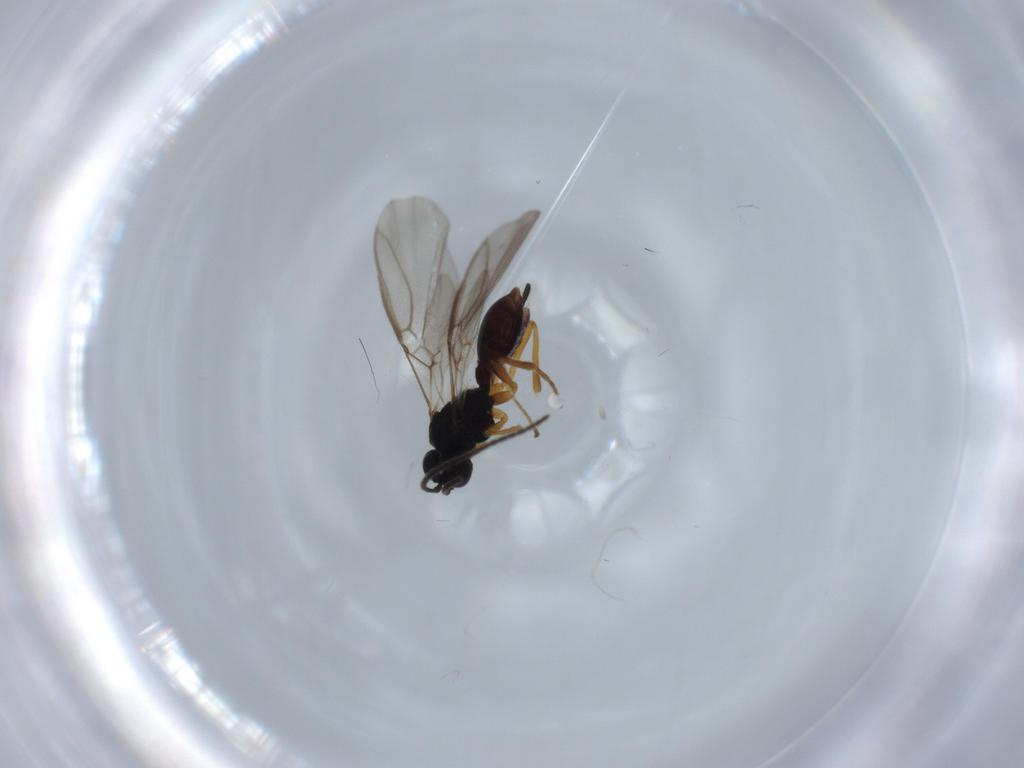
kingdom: Animalia
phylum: Arthropoda
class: Insecta
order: Hymenoptera
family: Braconidae
